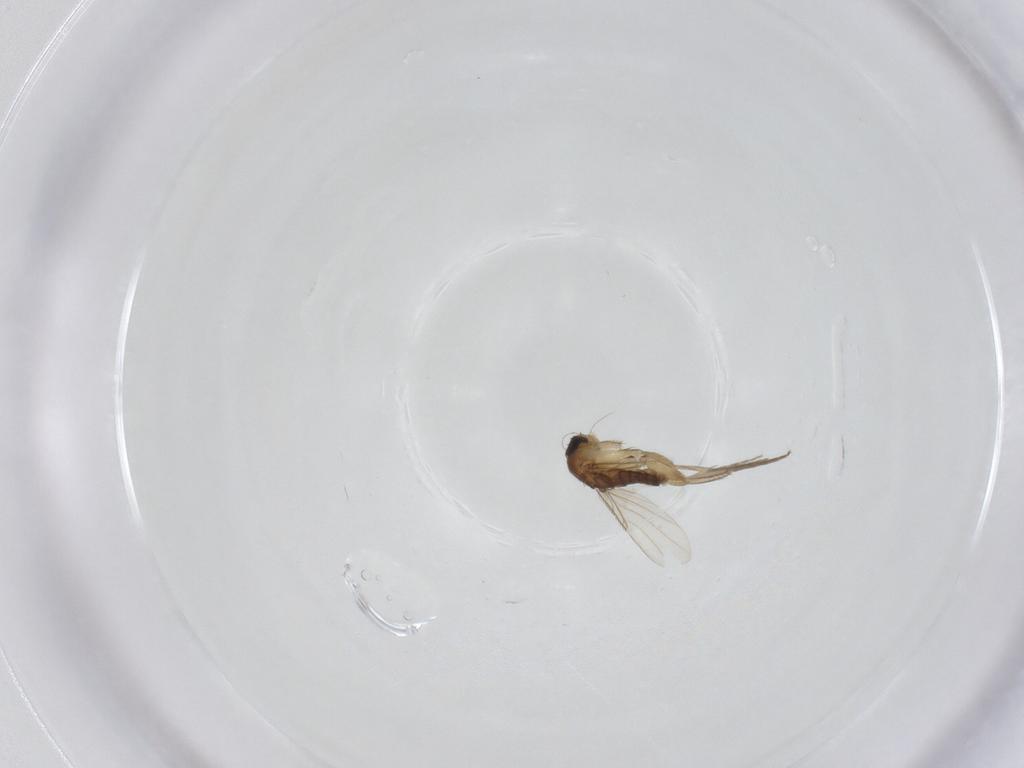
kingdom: Animalia
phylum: Arthropoda
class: Insecta
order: Diptera
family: Phoridae
